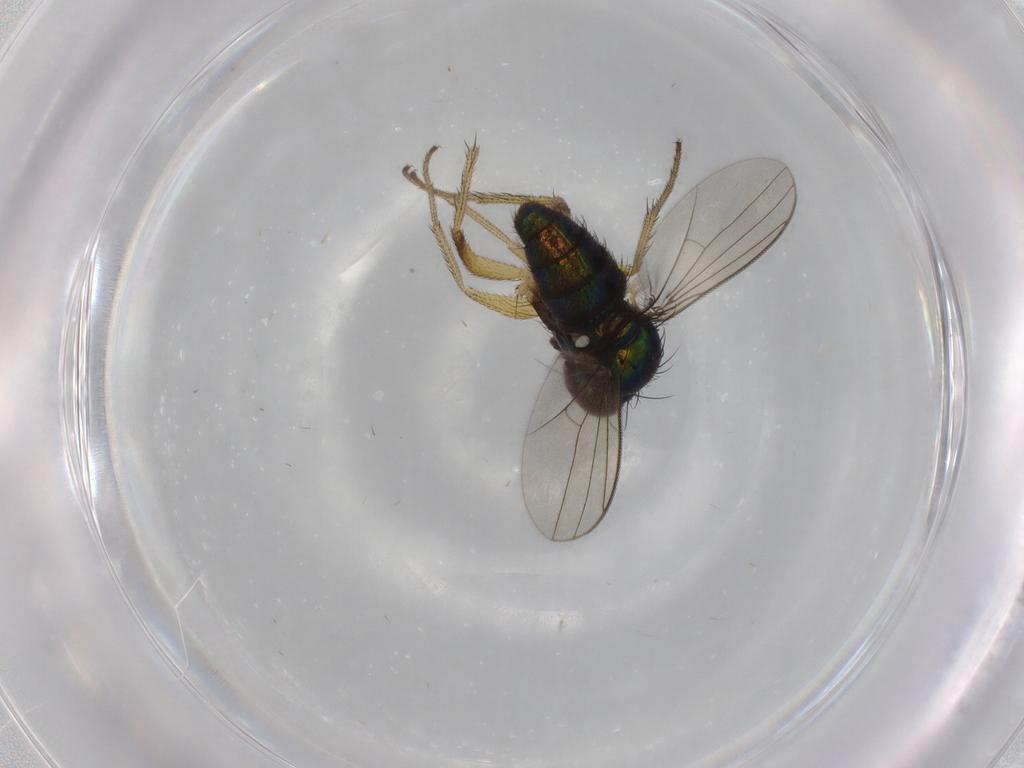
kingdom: Animalia
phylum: Arthropoda
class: Insecta
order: Diptera
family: Dolichopodidae
